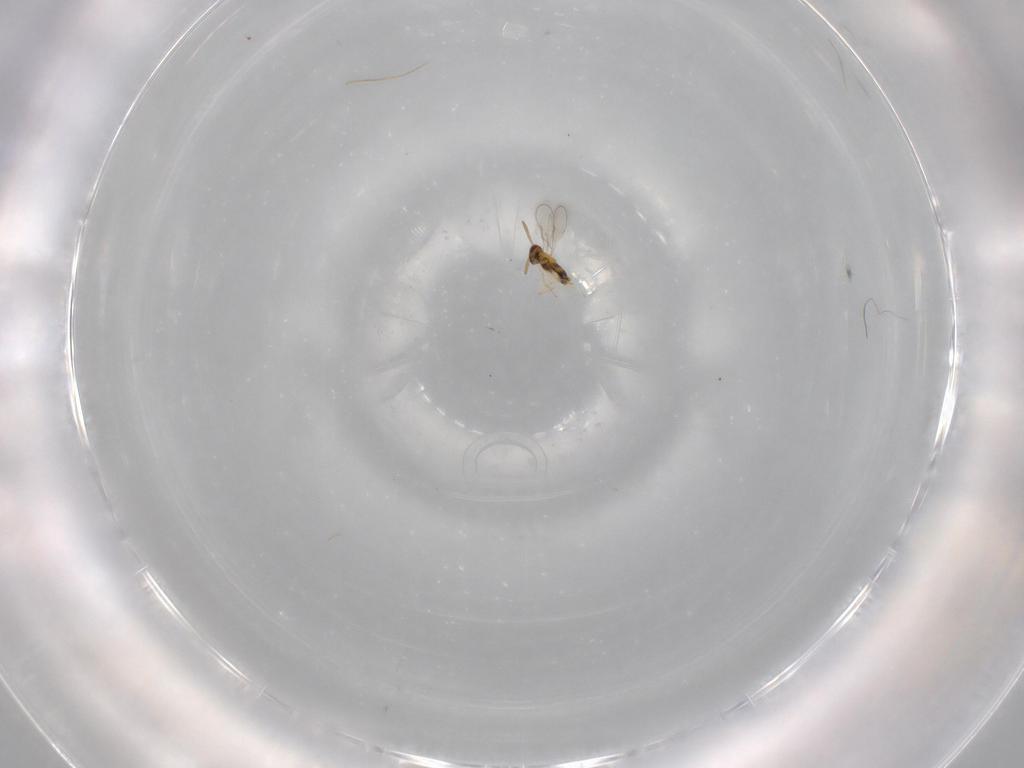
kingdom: Animalia
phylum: Arthropoda
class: Insecta
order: Hymenoptera
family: Aphelinidae
